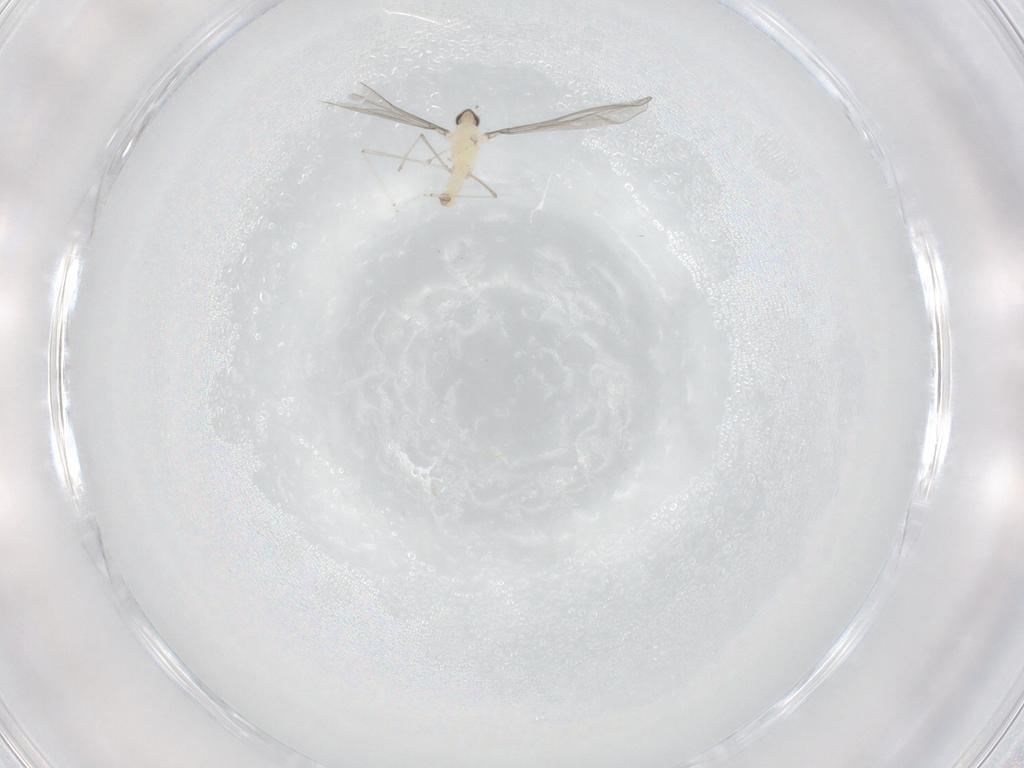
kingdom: Animalia
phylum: Arthropoda
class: Insecta
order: Diptera
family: Cecidomyiidae
